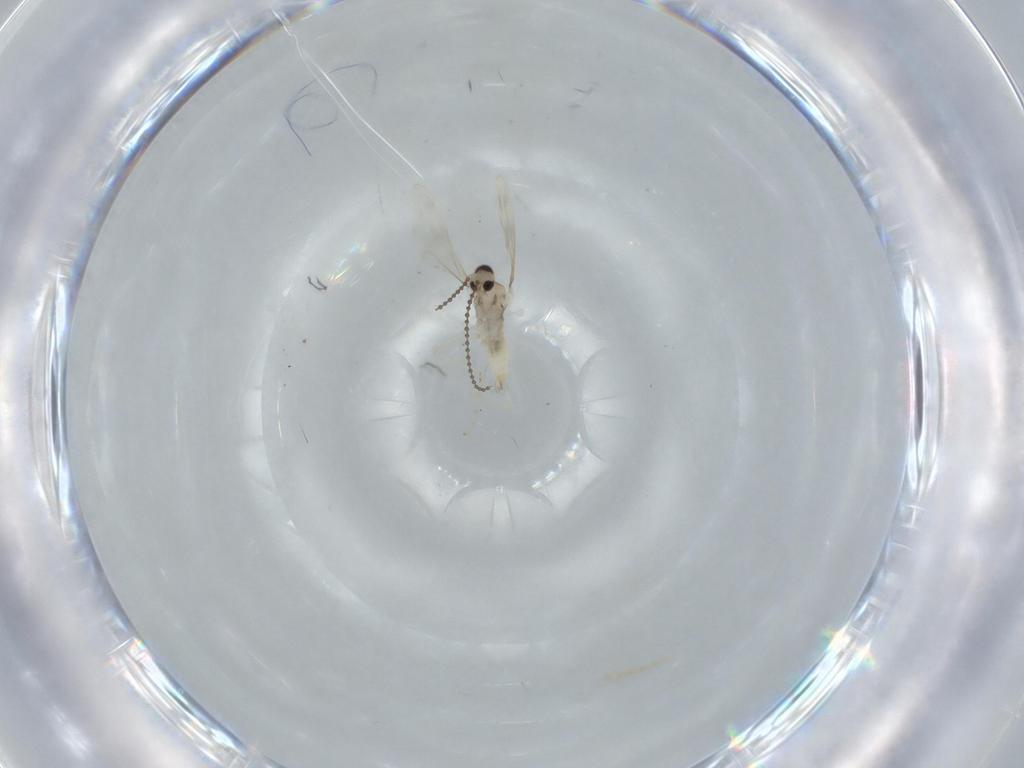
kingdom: Animalia
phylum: Arthropoda
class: Insecta
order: Diptera
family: Cecidomyiidae
